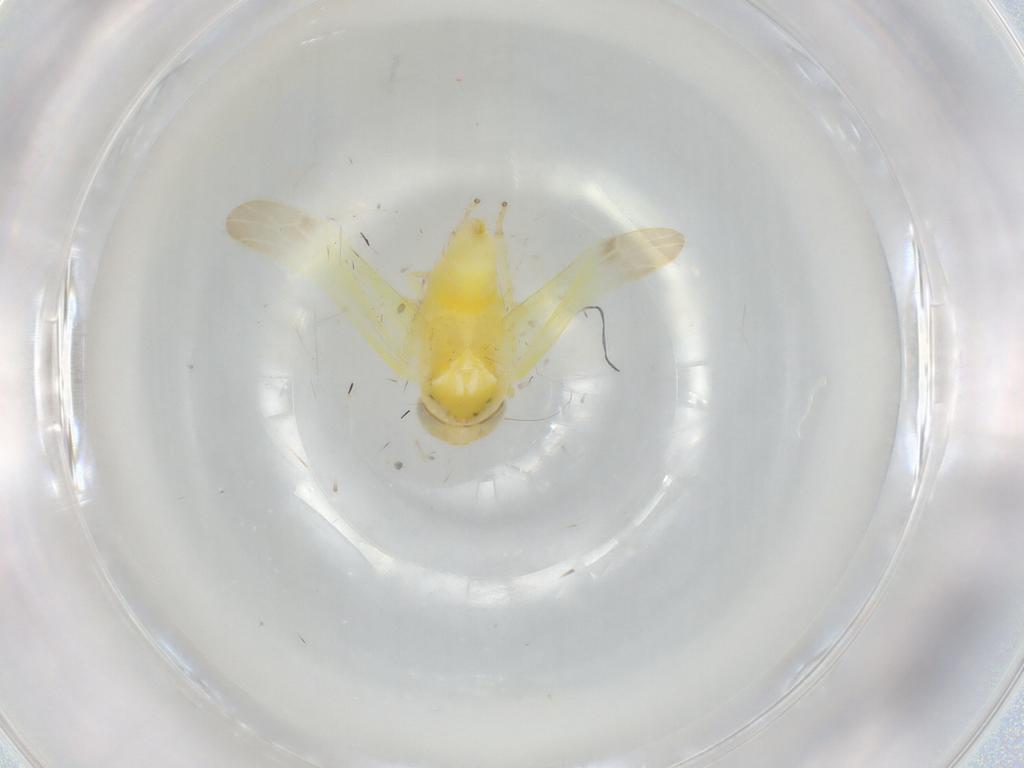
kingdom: Animalia
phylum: Arthropoda
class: Insecta
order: Hemiptera
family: Cicadellidae
